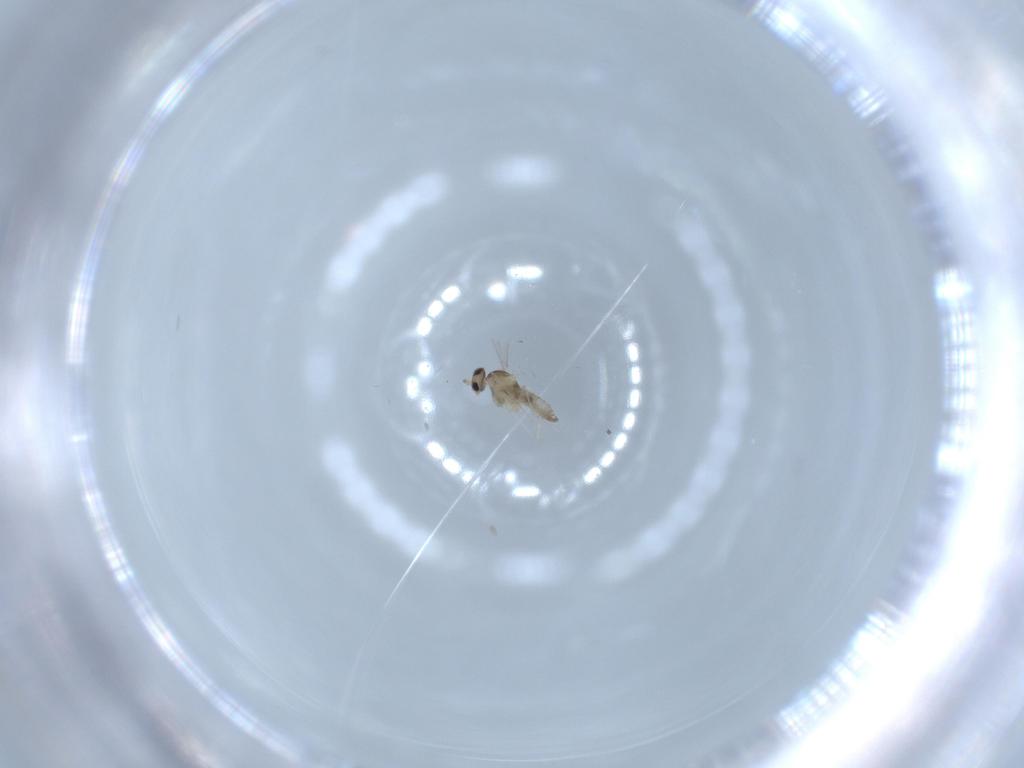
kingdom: Animalia
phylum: Arthropoda
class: Insecta
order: Diptera
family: Cecidomyiidae
